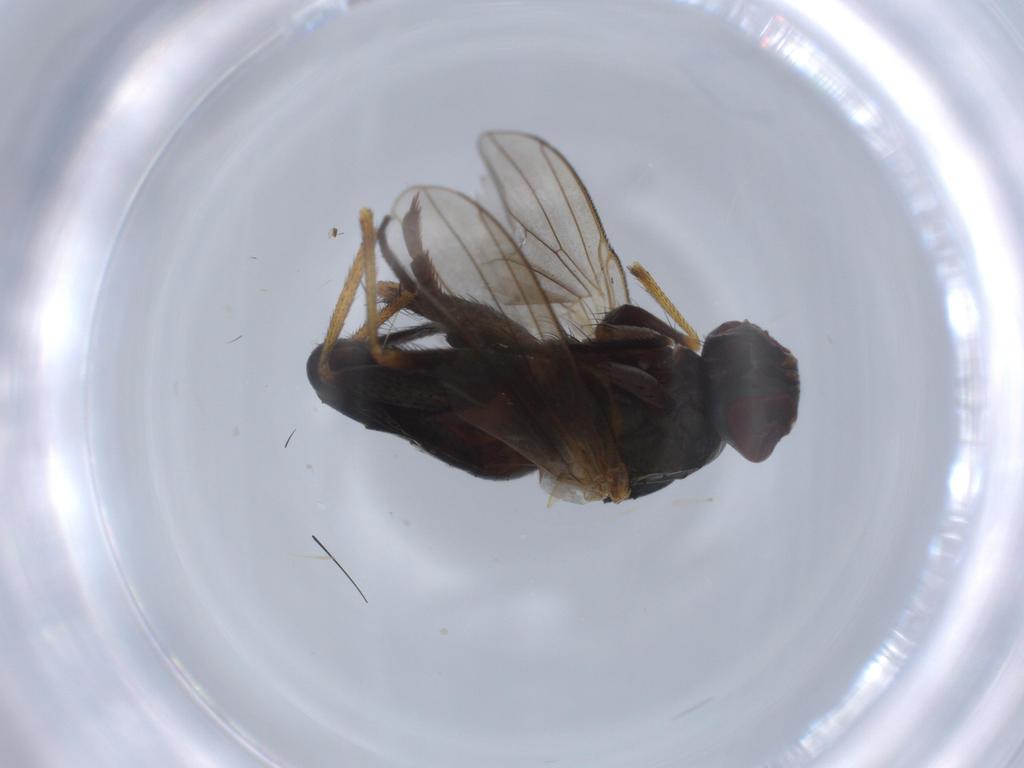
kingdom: Animalia
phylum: Arthropoda
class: Insecta
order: Diptera
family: Muscidae
